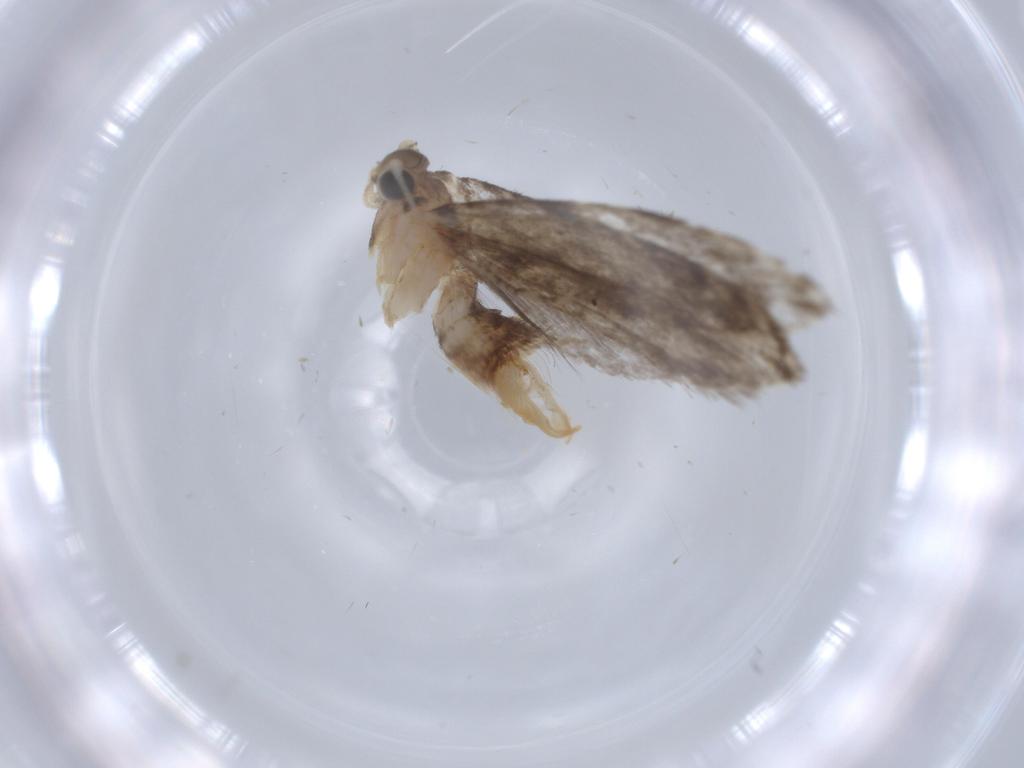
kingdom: Animalia
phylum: Arthropoda
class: Insecta
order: Lepidoptera
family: Tineidae
